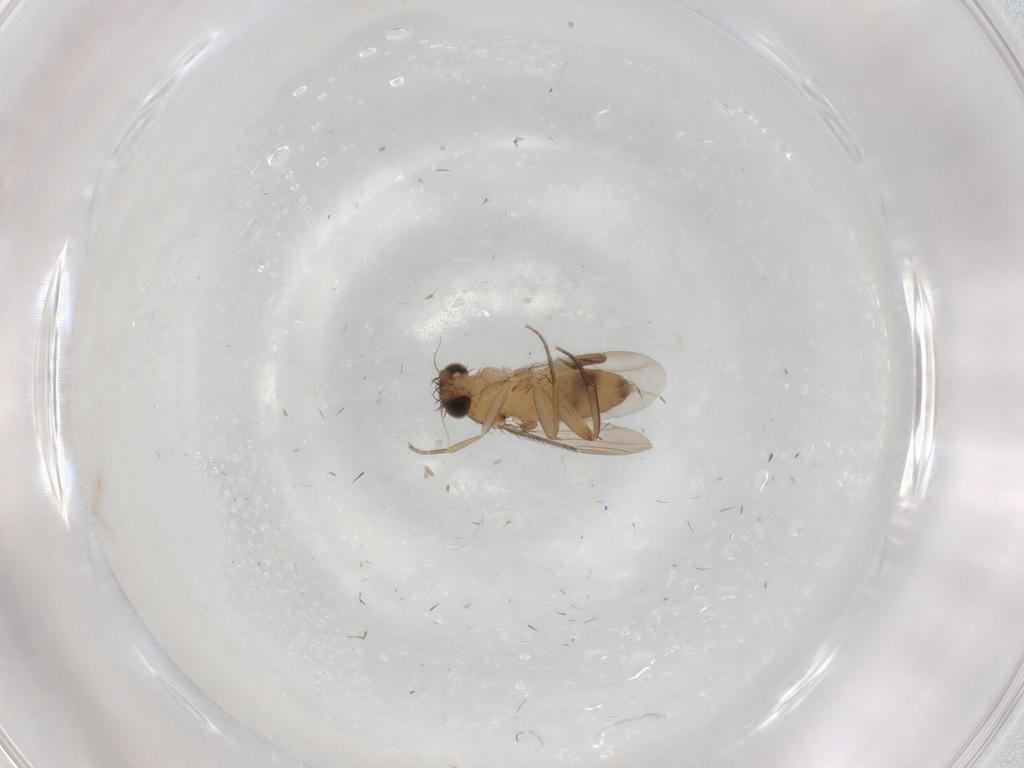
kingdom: Animalia
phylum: Arthropoda
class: Insecta
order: Diptera
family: Phoridae
